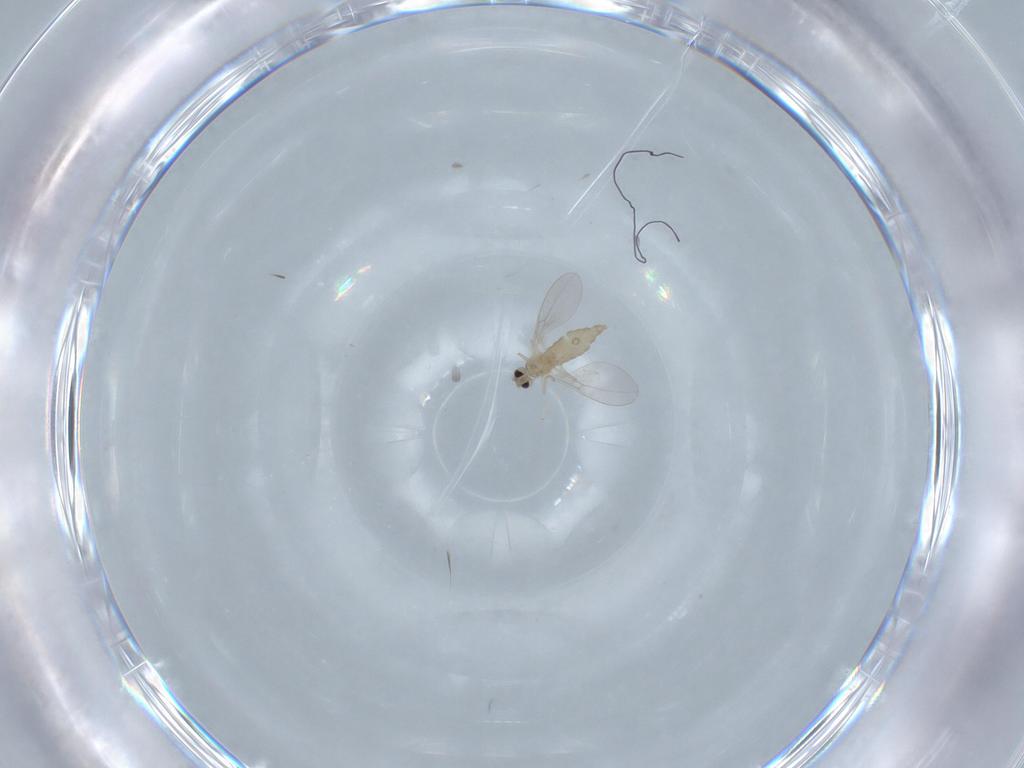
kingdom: Animalia
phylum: Arthropoda
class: Insecta
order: Diptera
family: Cecidomyiidae
